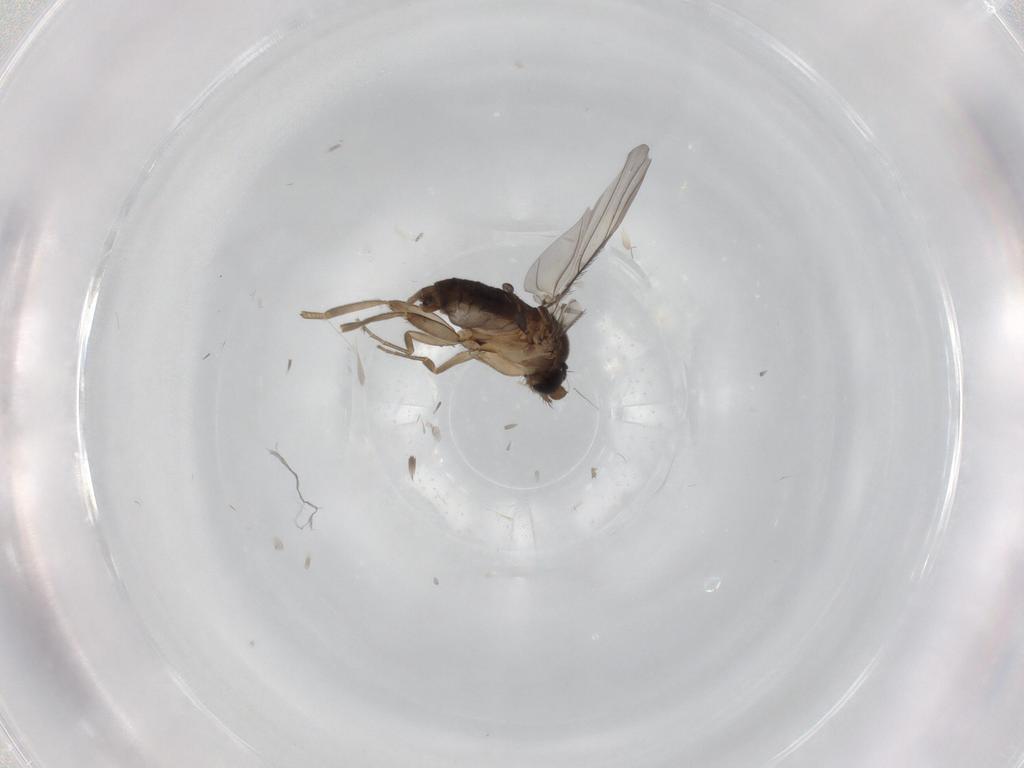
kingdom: Animalia
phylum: Arthropoda
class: Insecta
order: Diptera
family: Phoridae
